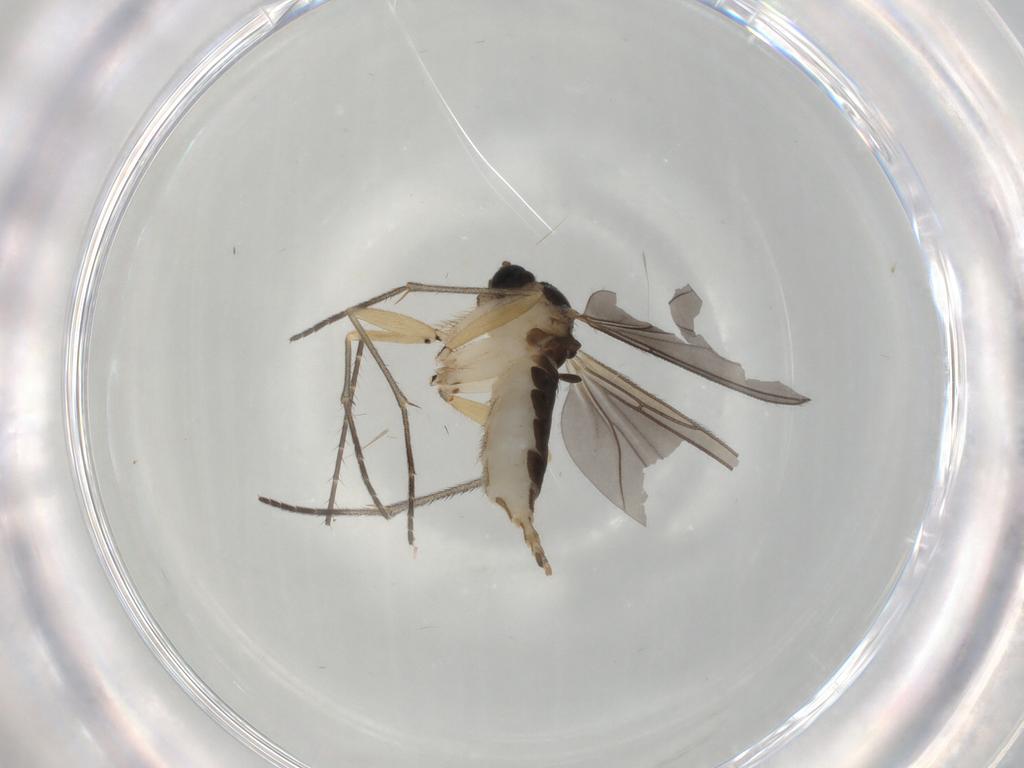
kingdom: Animalia
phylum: Arthropoda
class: Insecta
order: Diptera
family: Sciaridae
